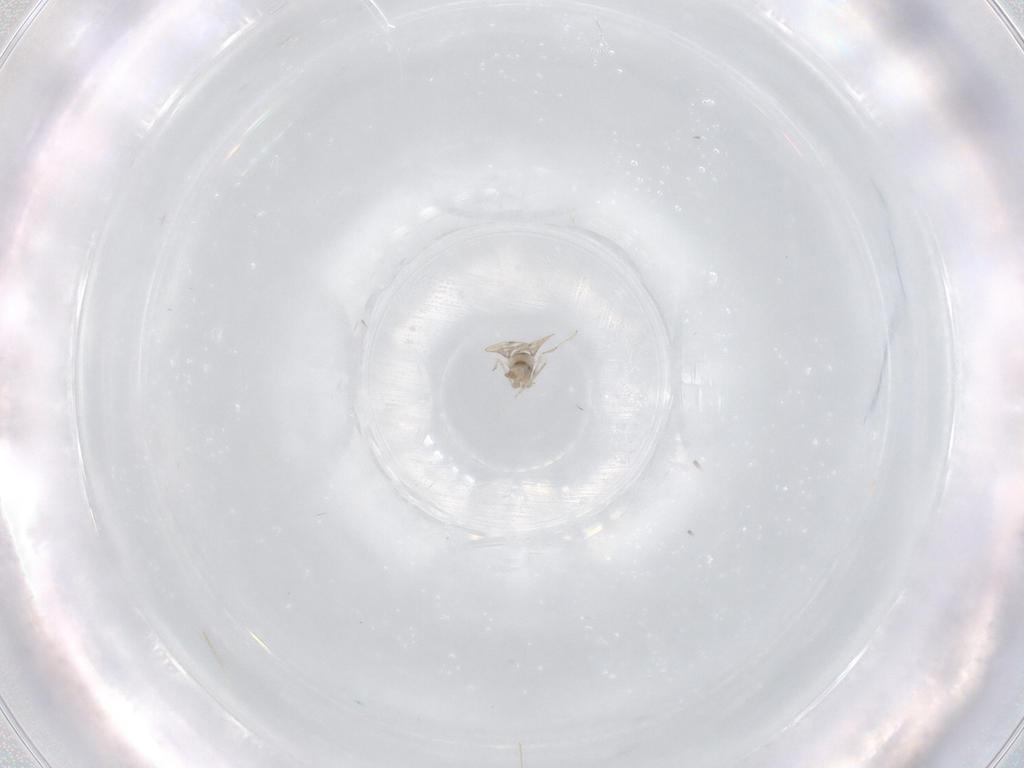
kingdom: Animalia
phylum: Arthropoda
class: Insecta
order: Diptera
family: Cecidomyiidae
